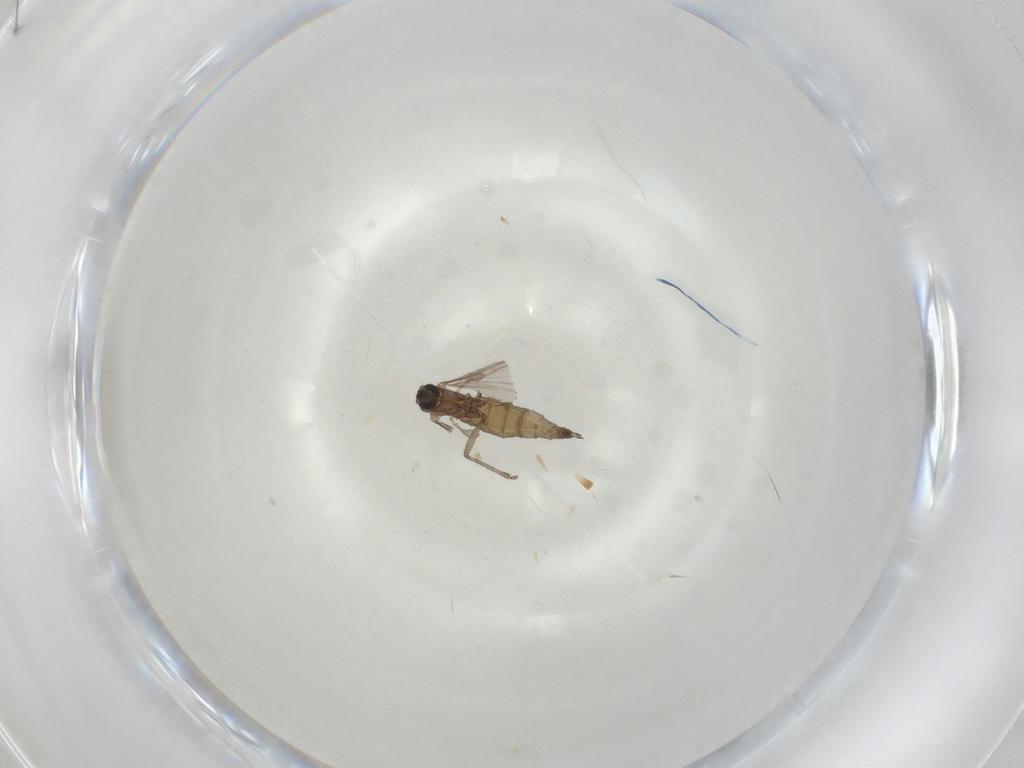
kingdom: Animalia
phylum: Arthropoda
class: Insecta
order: Diptera
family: Sciaridae
